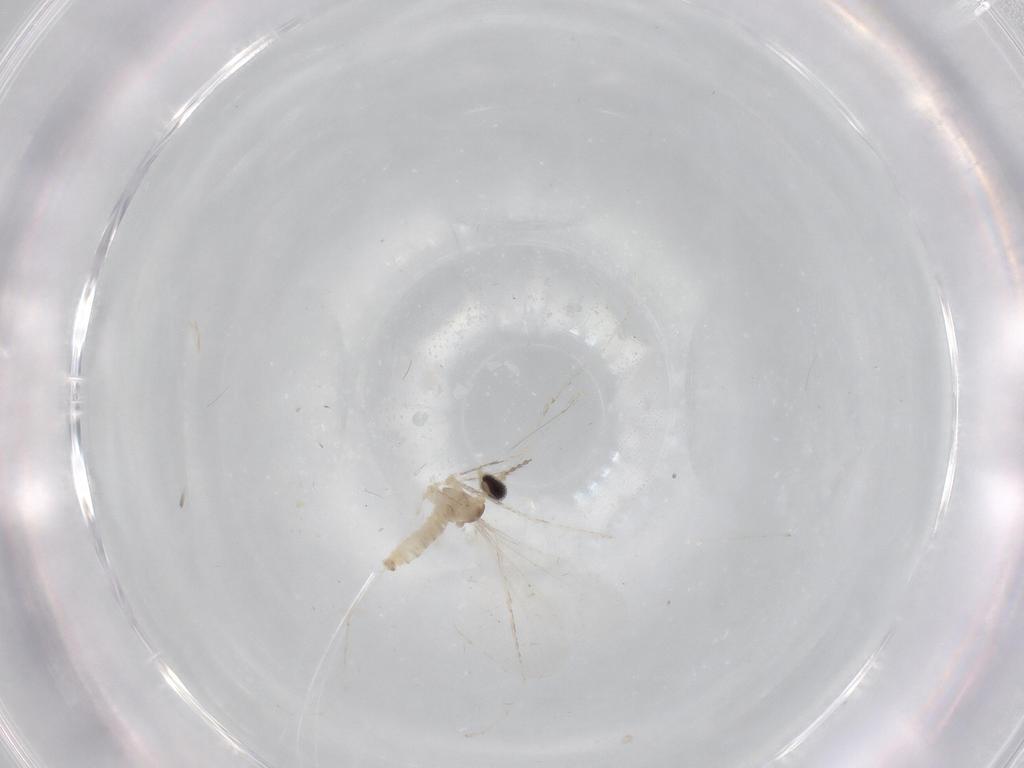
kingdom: Animalia
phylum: Arthropoda
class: Insecta
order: Diptera
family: Cecidomyiidae
